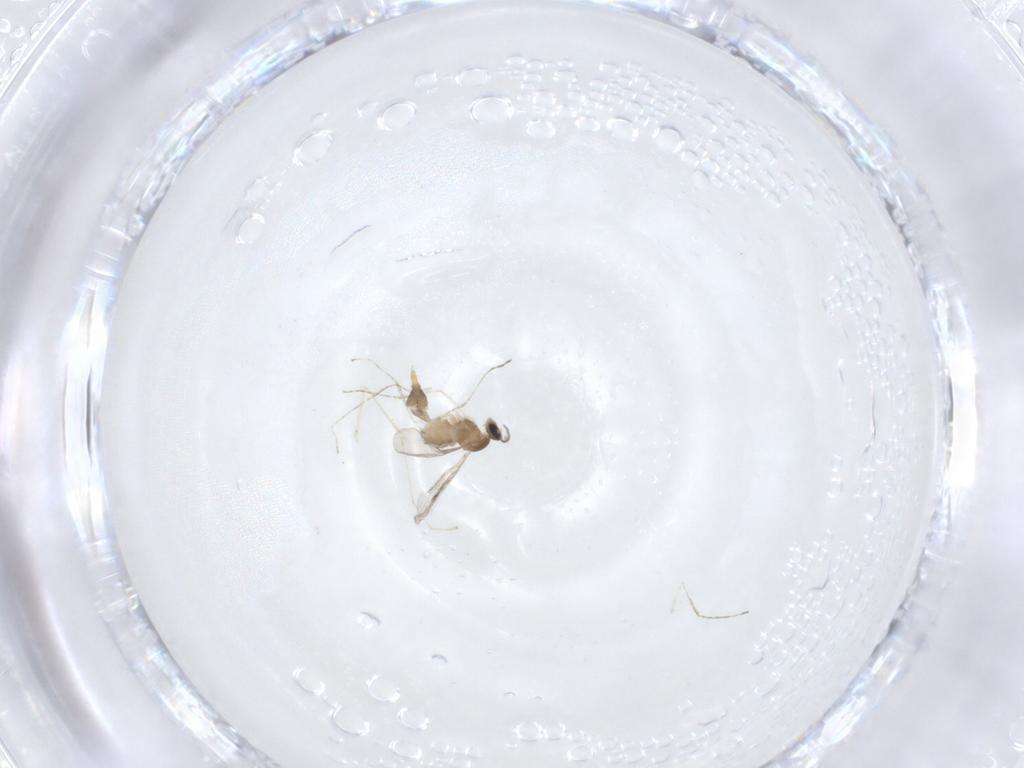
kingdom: Animalia
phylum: Arthropoda
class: Insecta
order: Diptera
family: Cecidomyiidae
